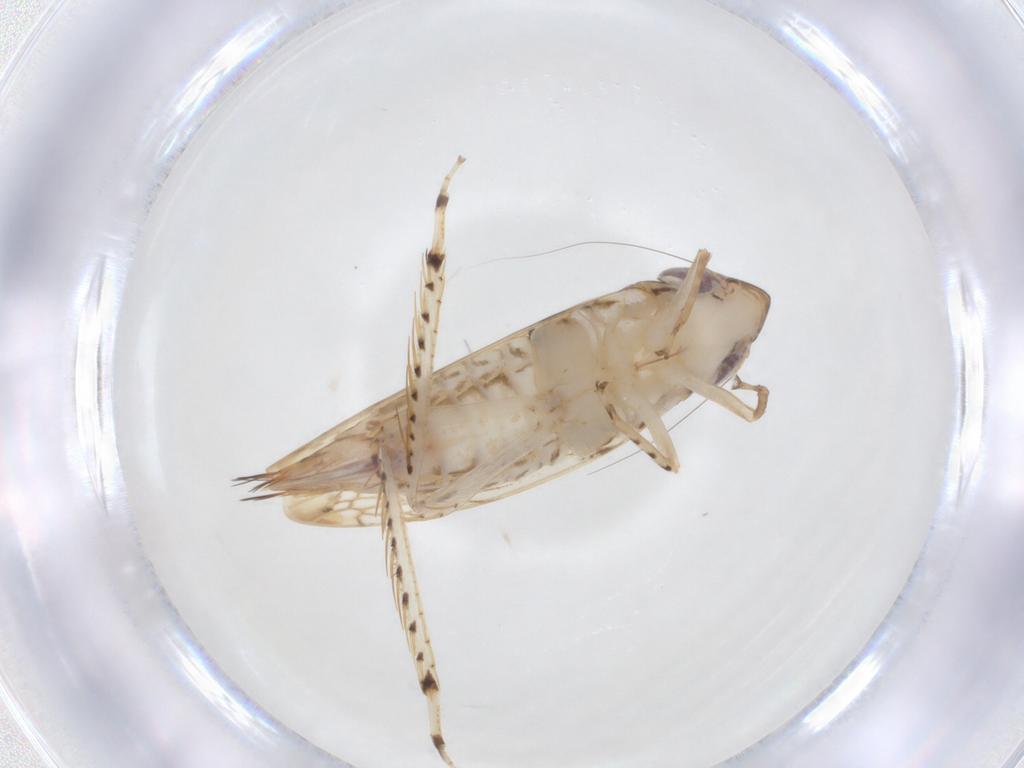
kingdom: Animalia
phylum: Arthropoda
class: Insecta
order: Hemiptera
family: Cicadellidae
